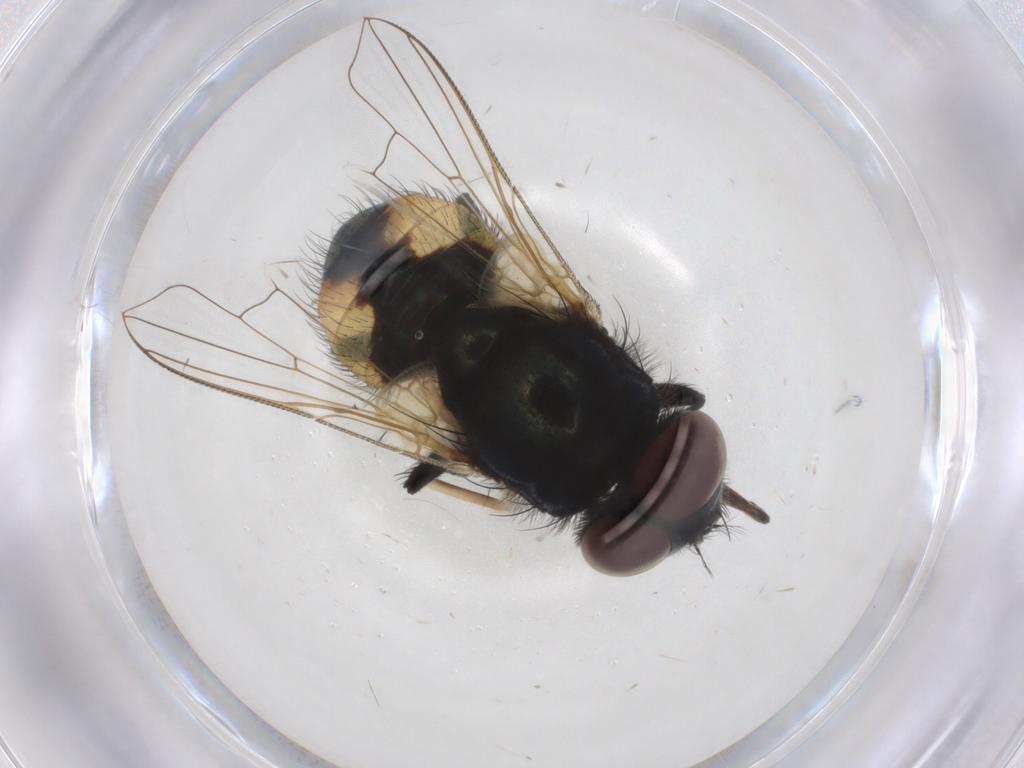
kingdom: Animalia
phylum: Arthropoda
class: Insecta
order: Diptera
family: Muscidae
